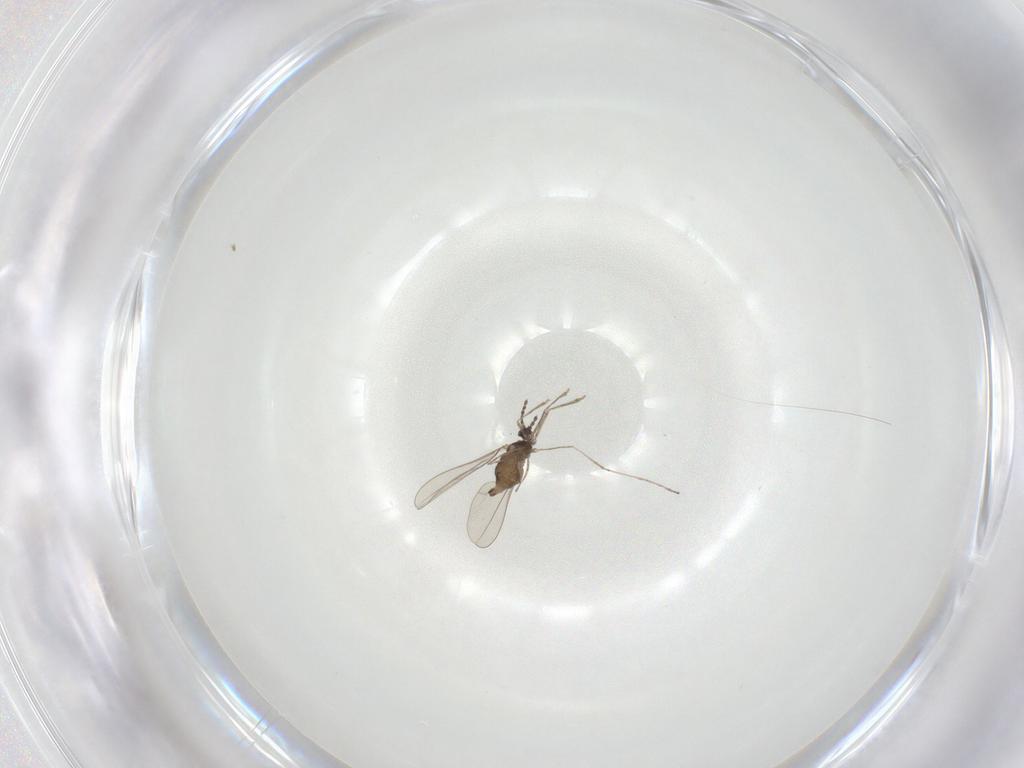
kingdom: Animalia
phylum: Arthropoda
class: Insecta
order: Diptera
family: Cecidomyiidae
